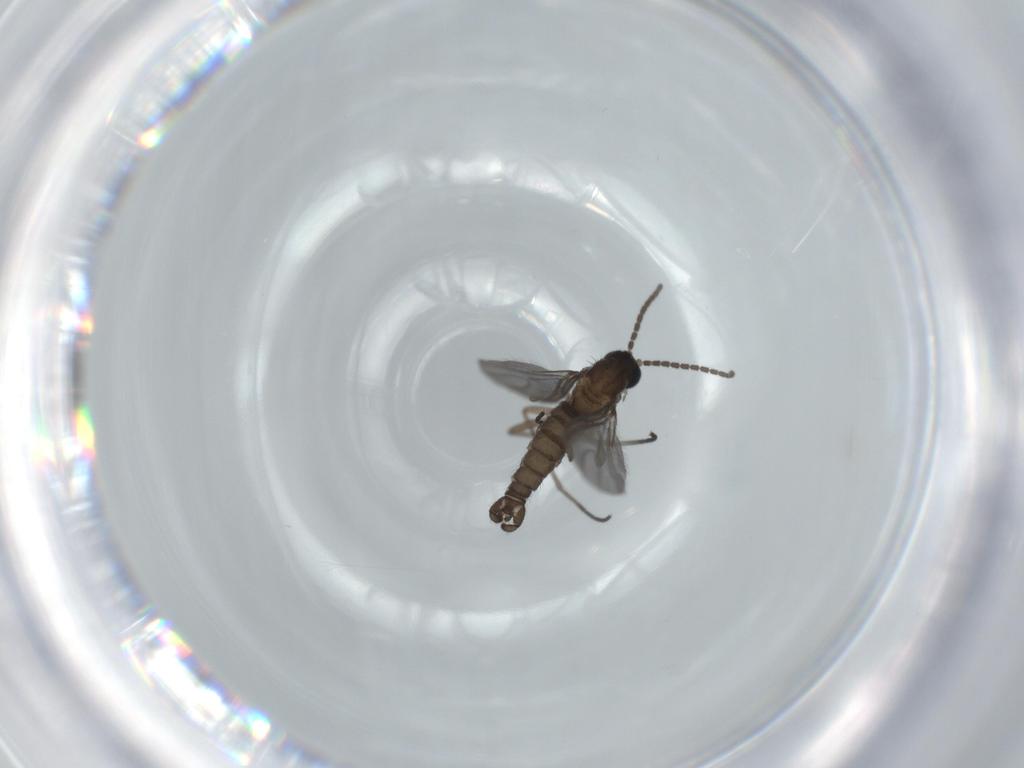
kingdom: Animalia
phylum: Arthropoda
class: Insecta
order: Diptera
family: Sciaridae
